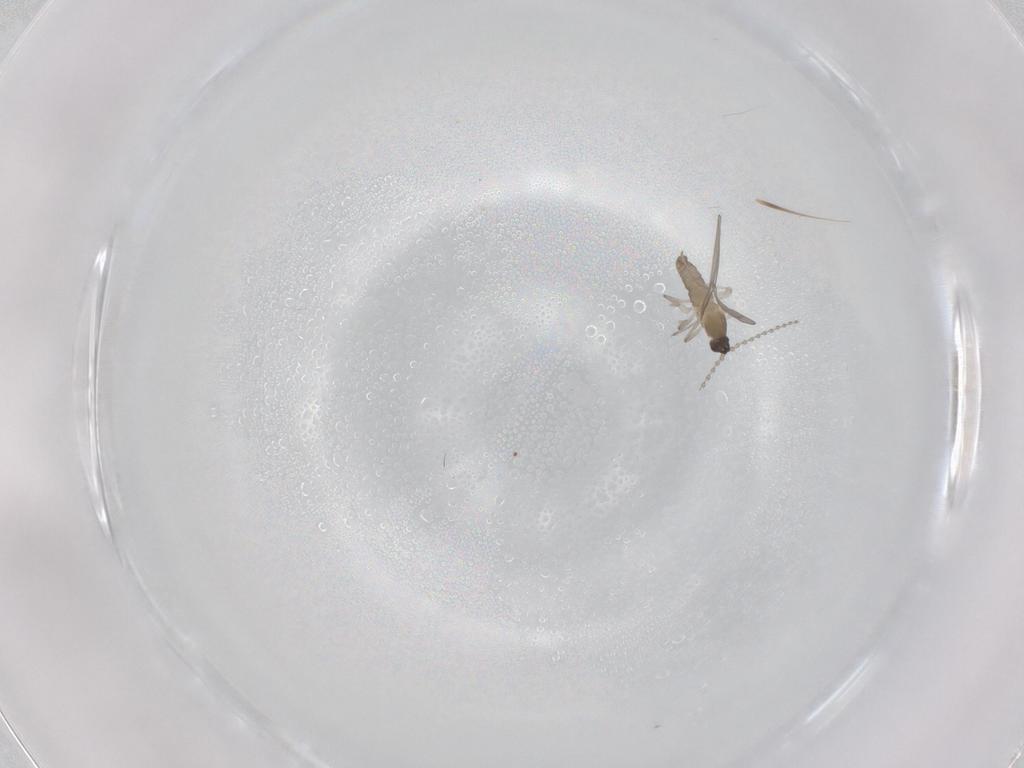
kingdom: Animalia
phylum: Arthropoda
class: Insecta
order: Diptera
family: Cecidomyiidae
